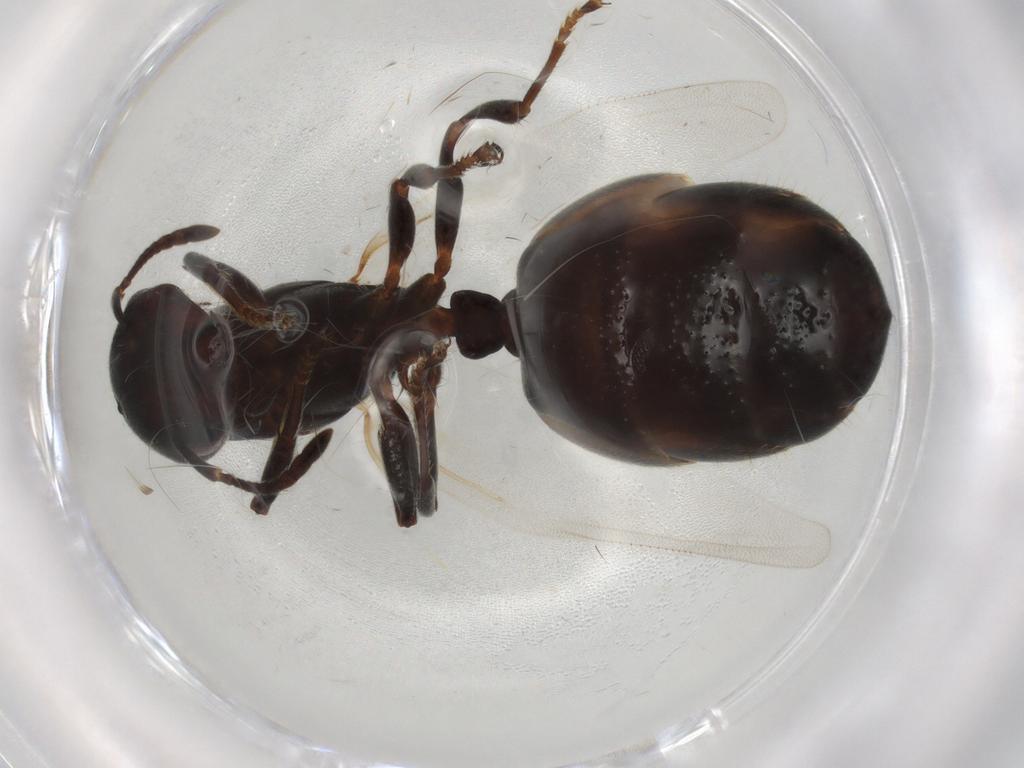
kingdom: Animalia
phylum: Arthropoda
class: Insecta
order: Hymenoptera
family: Formicidae
